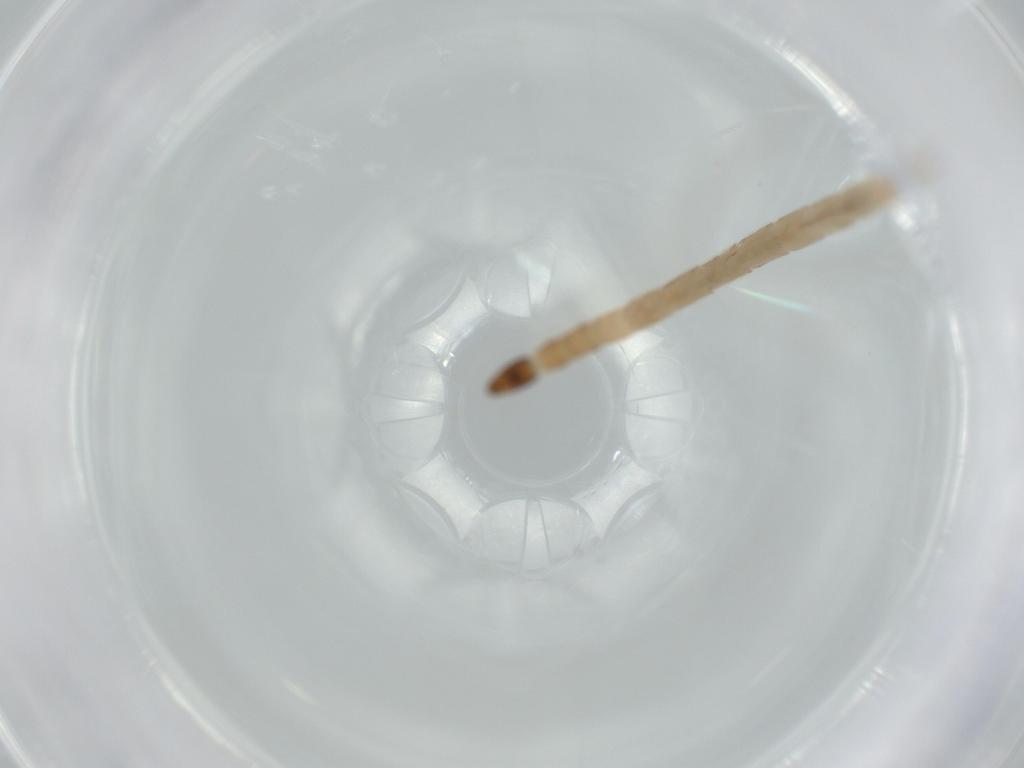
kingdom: Animalia
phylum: Arthropoda
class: Insecta
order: Diptera
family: Ceratopogonidae
